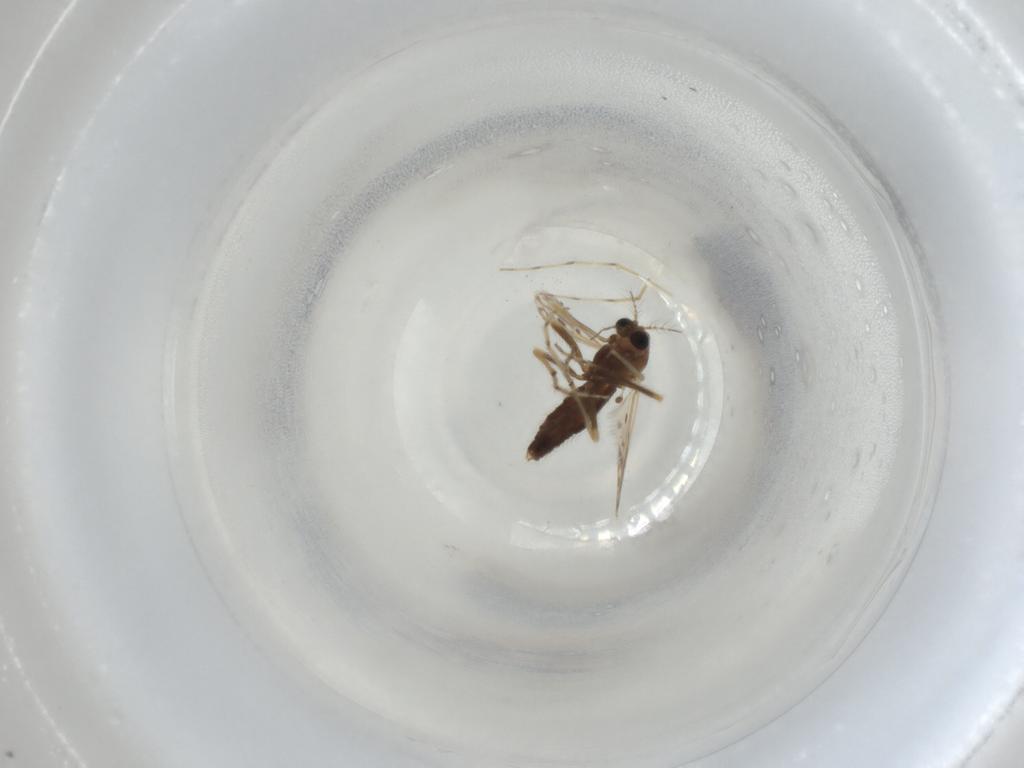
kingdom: Animalia
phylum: Arthropoda
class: Insecta
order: Diptera
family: Chironomidae
